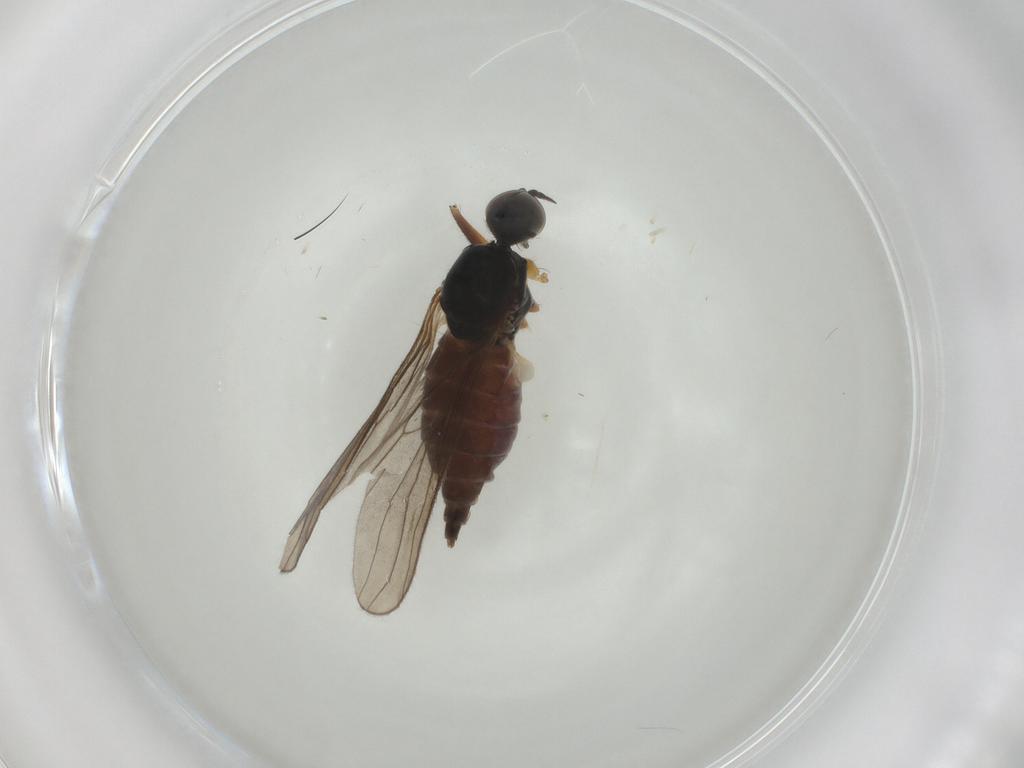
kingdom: Animalia
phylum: Arthropoda
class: Insecta
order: Diptera
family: Hybotidae
